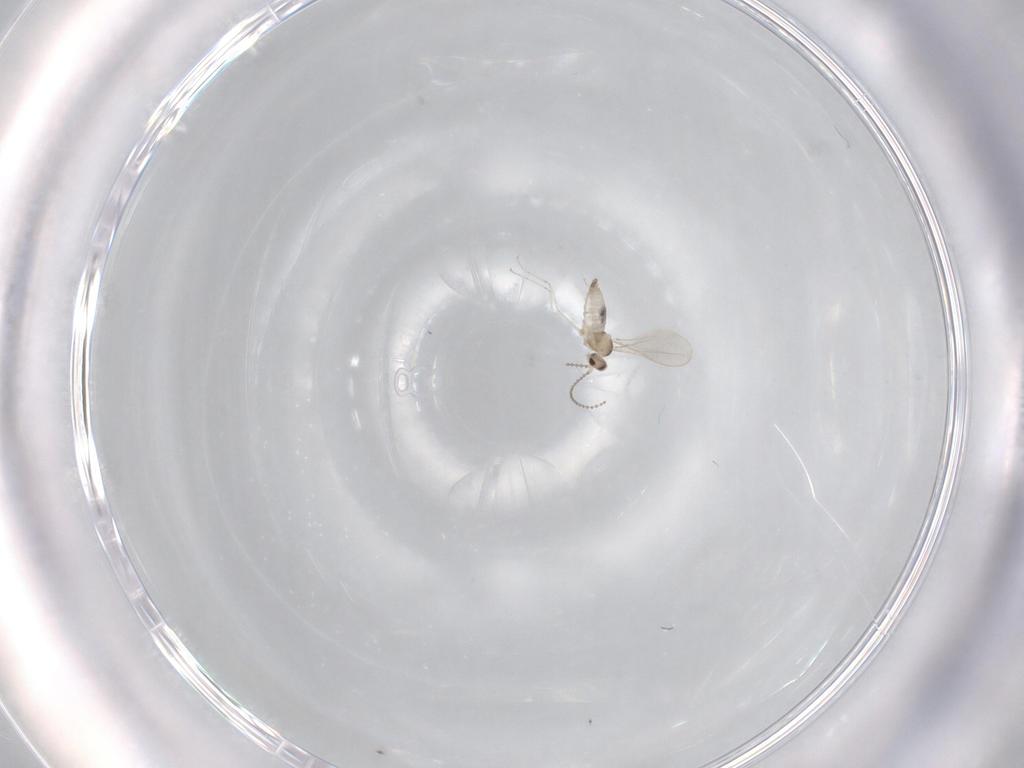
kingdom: Animalia
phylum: Arthropoda
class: Insecta
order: Diptera
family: Cecidomyiidae
